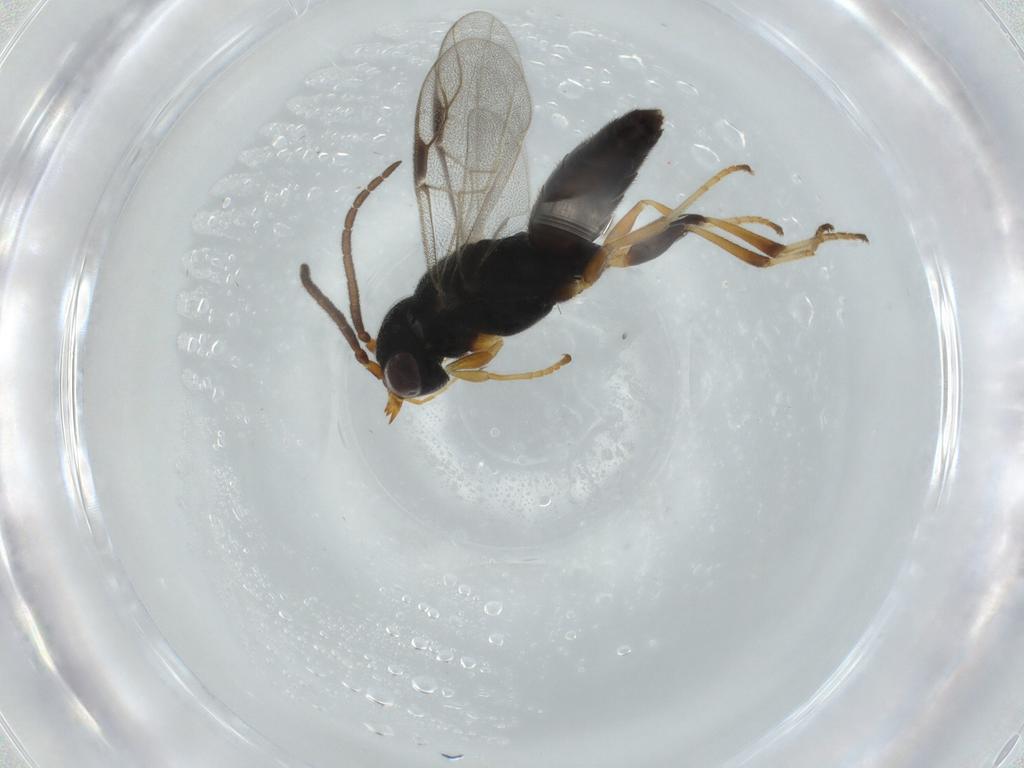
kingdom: Animalia
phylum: Arthropoda
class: Insecta
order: Hymenoptera
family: Dryinidae
